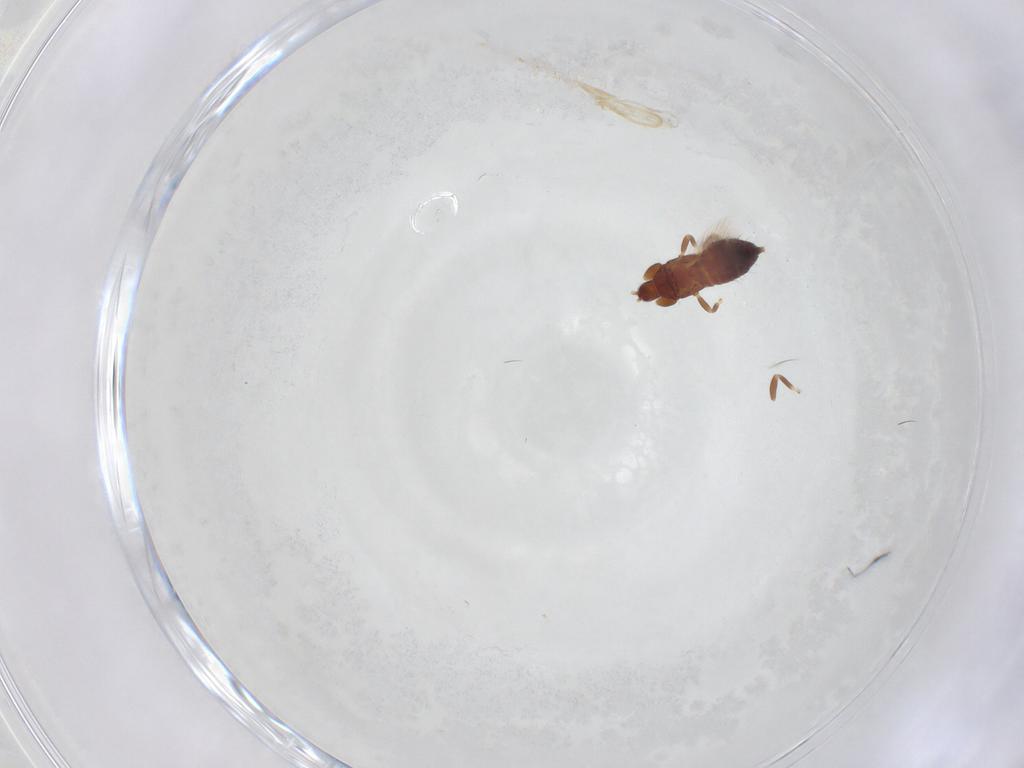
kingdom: Animalia
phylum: Arthropoda
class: Insecta
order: Thysanoptera
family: Phlaeothripidae
